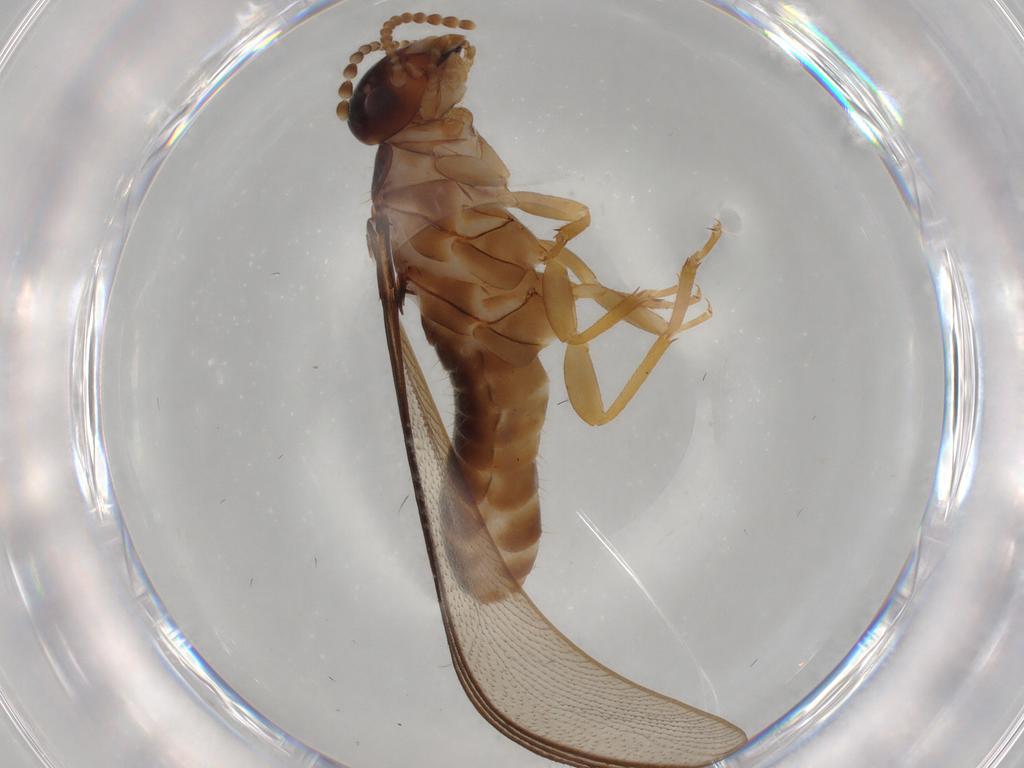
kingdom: Animalia
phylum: Arthropoda
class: Insecta
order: Blattodea
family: Kalotermitidae
